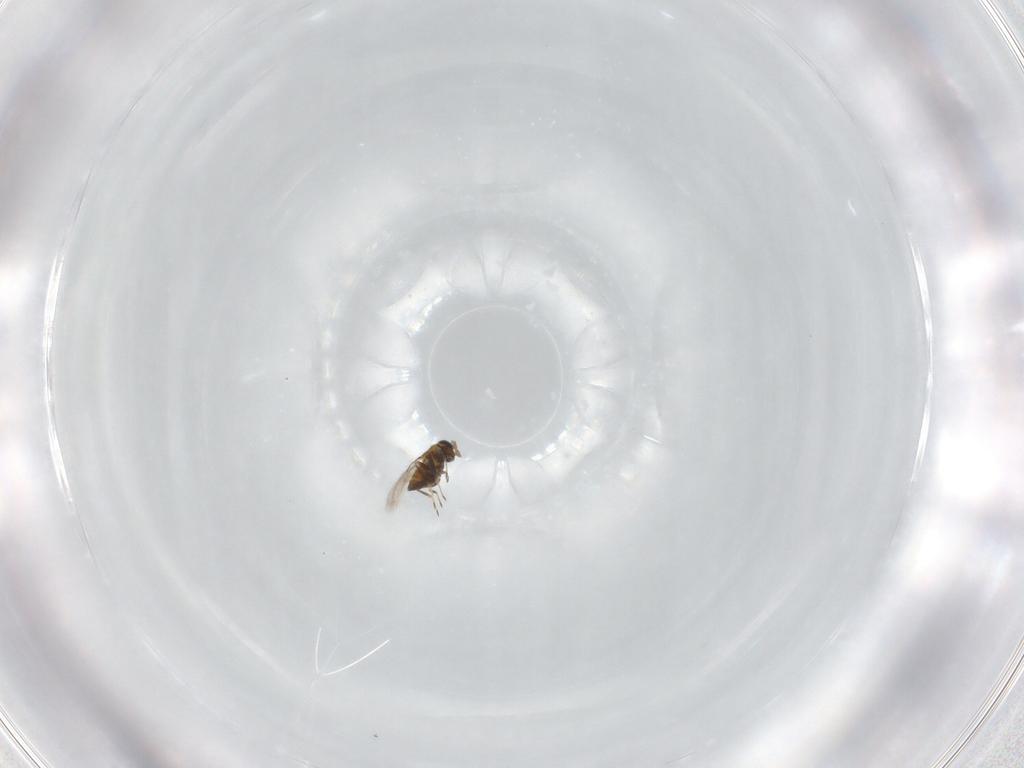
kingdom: Animalia
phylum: Arthropoda
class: Insecta
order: Hymenoptera
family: Trichogrammatidae
